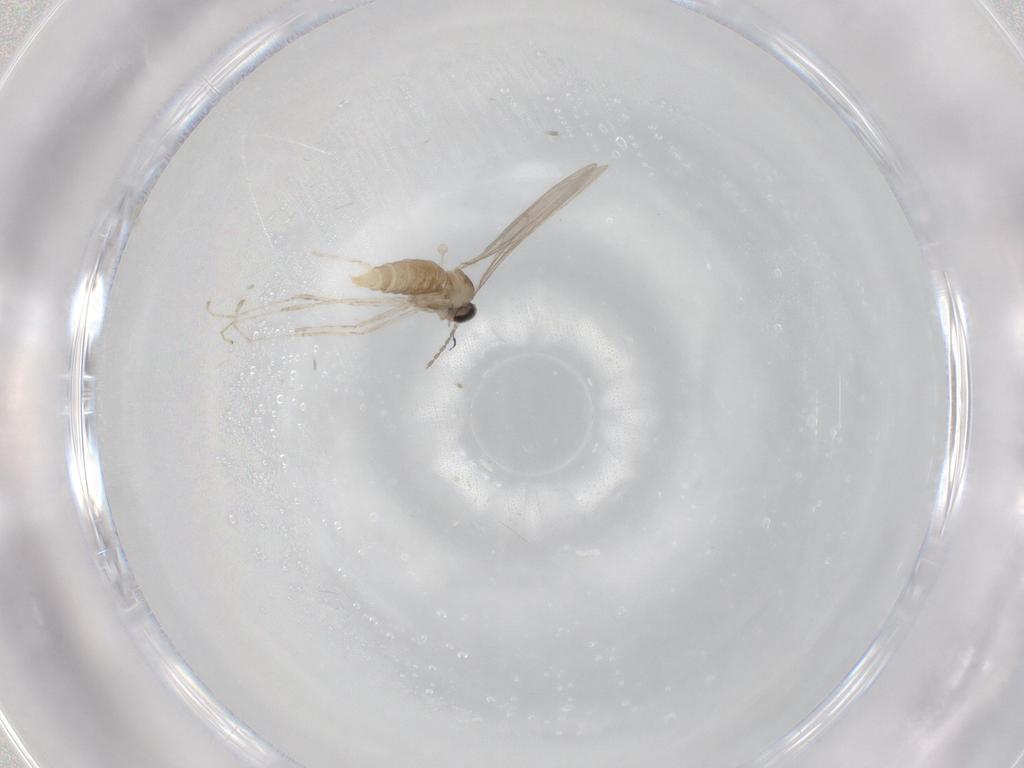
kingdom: Animalia
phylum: Arthropoda
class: Insecta
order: Diptera
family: Cecidomyiidae
